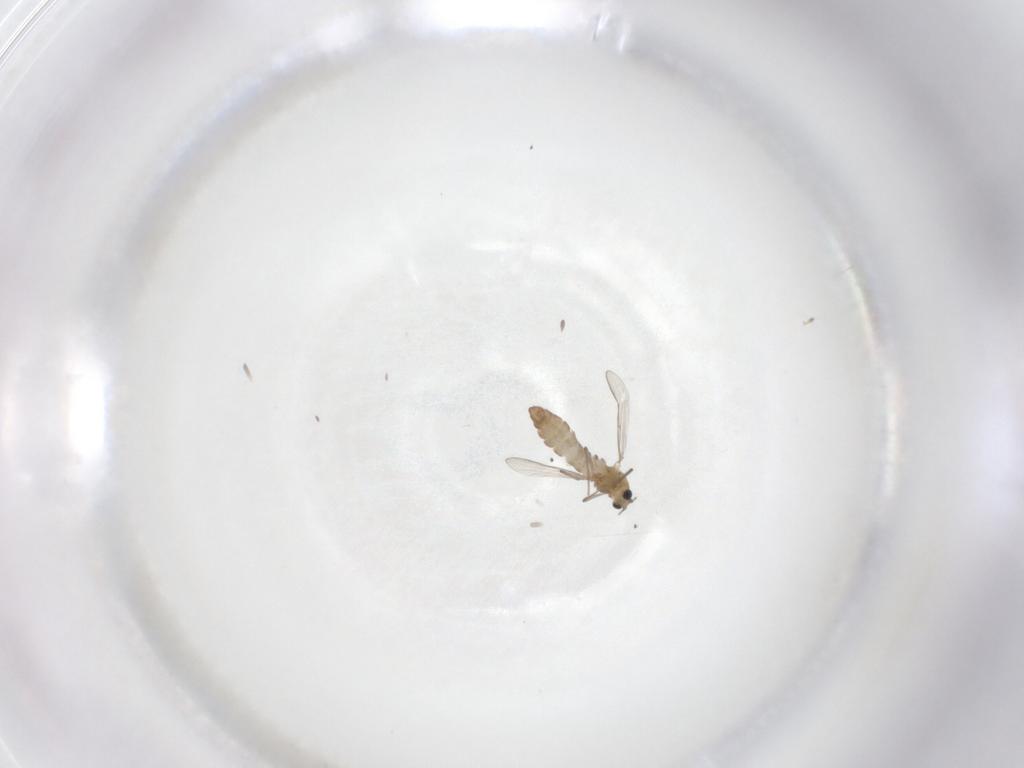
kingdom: Animalia
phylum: Arthropoda
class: Insecta
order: Diptera
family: Chironomidae
